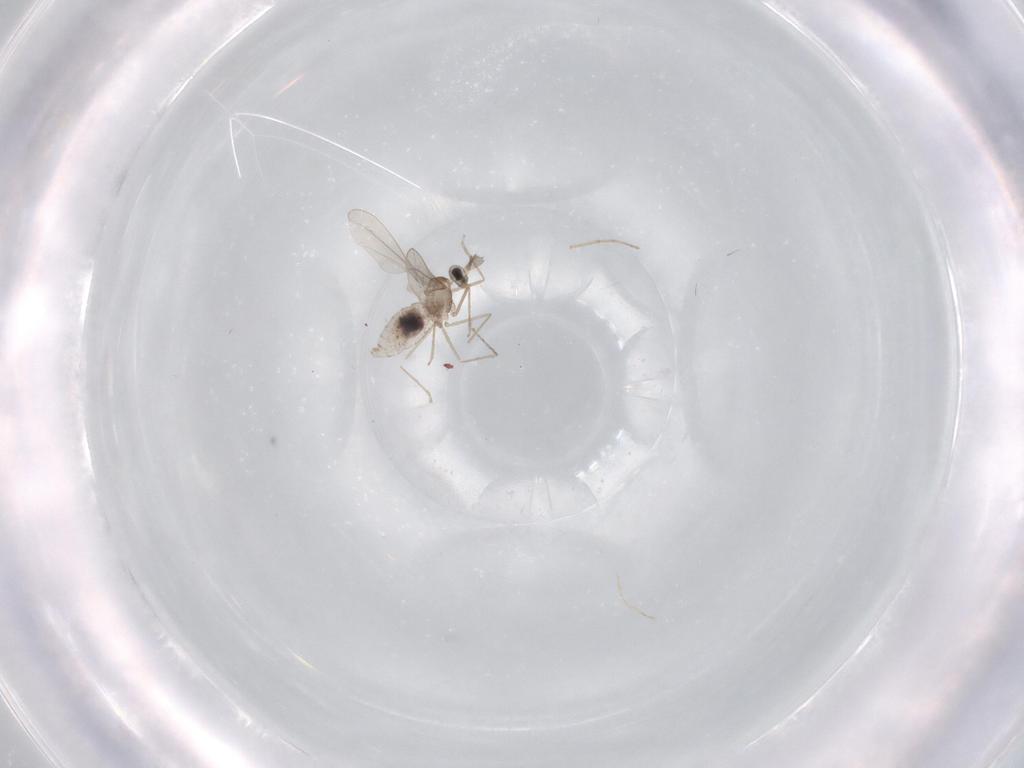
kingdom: Animalia
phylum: Arthropoda
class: Insecta
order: Diptera
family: Cecidomyiidae
